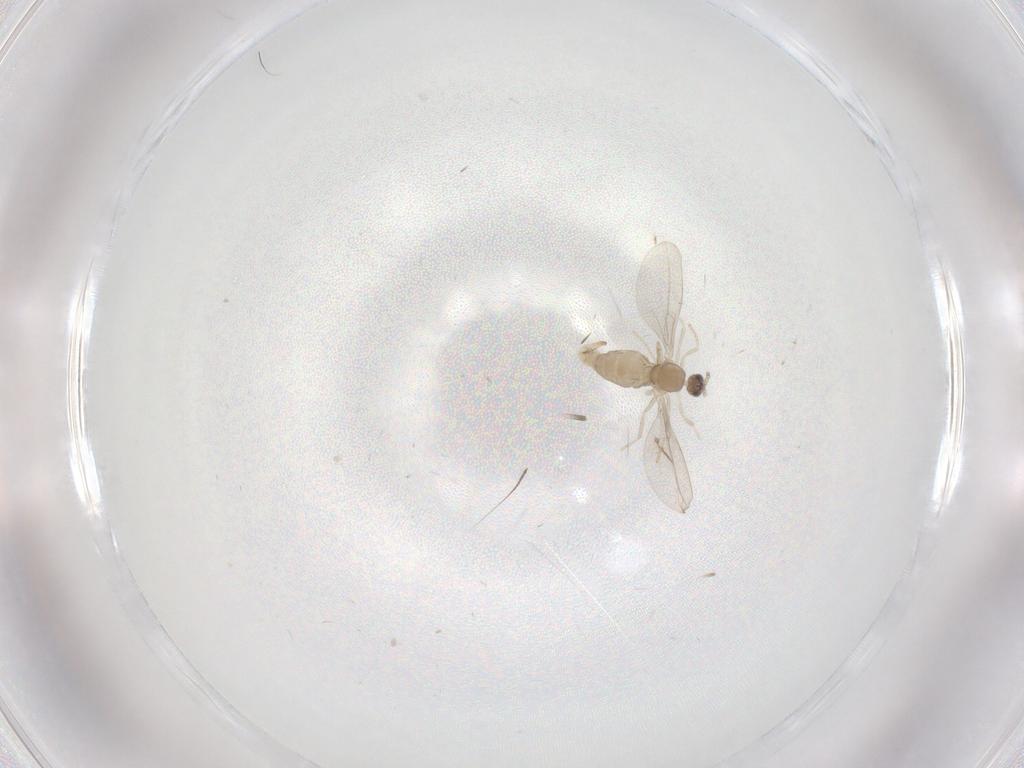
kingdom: Animalia
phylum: Arthropoda
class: Insecta
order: Diptera
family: Cecidomyiidae
